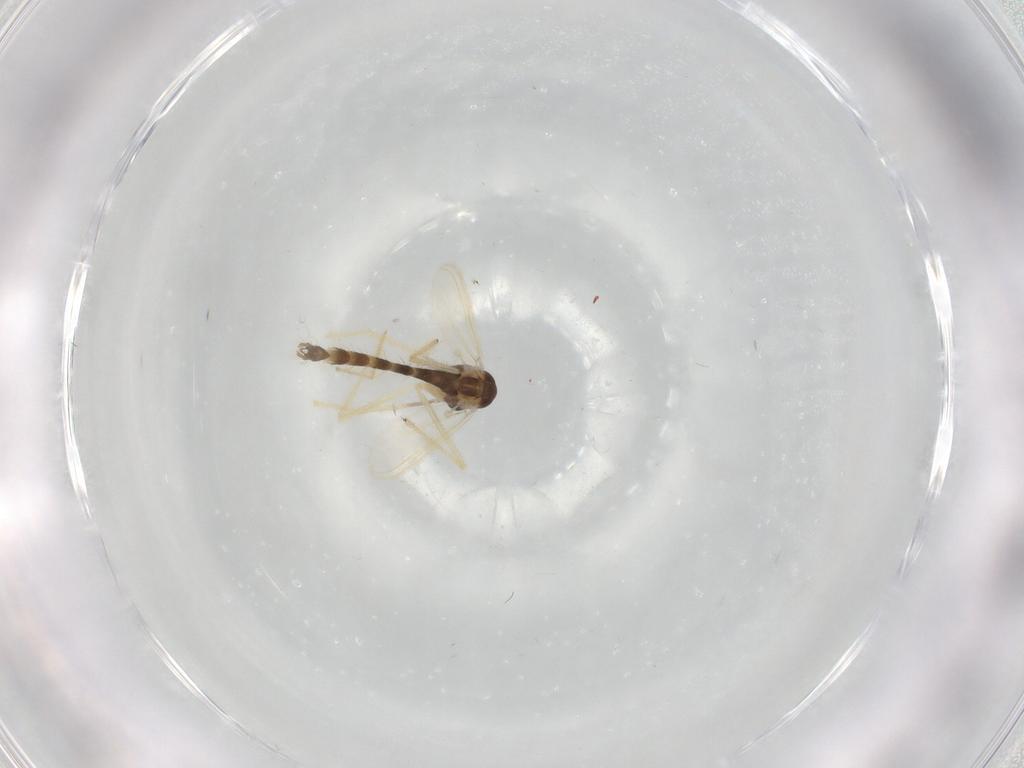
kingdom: Animalia
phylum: Arthropoda
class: Insecta
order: Diptera
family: Chironomidae
